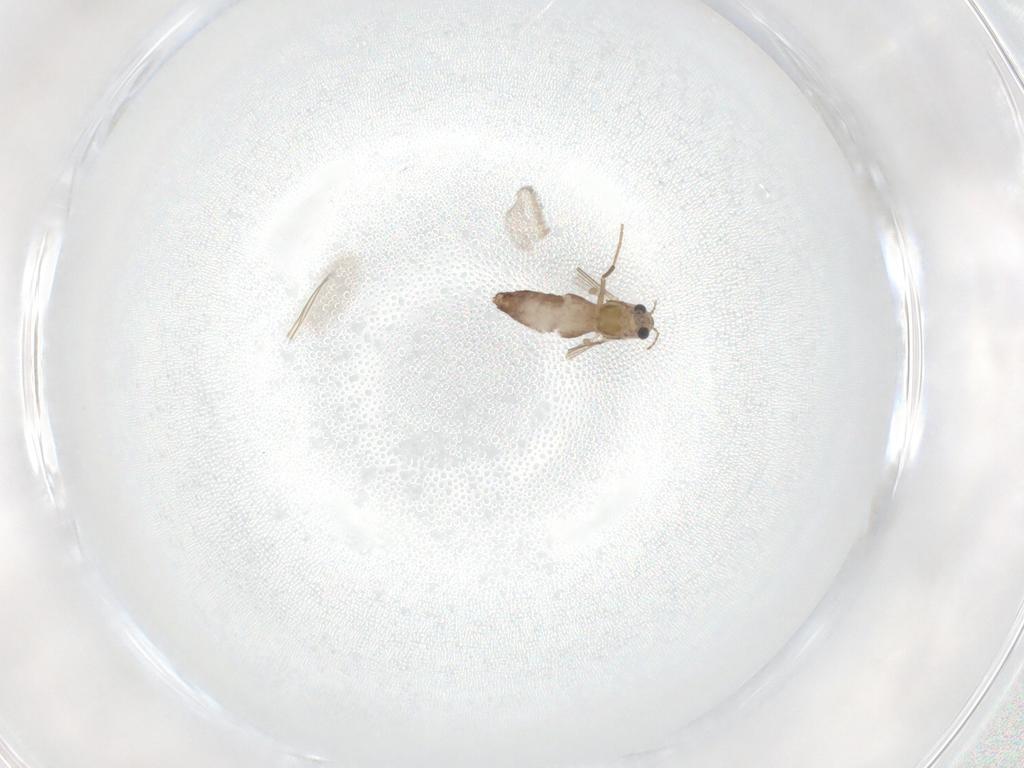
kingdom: Animalia
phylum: Arthropoda
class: Insecta
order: Diptera
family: Chironomidae
